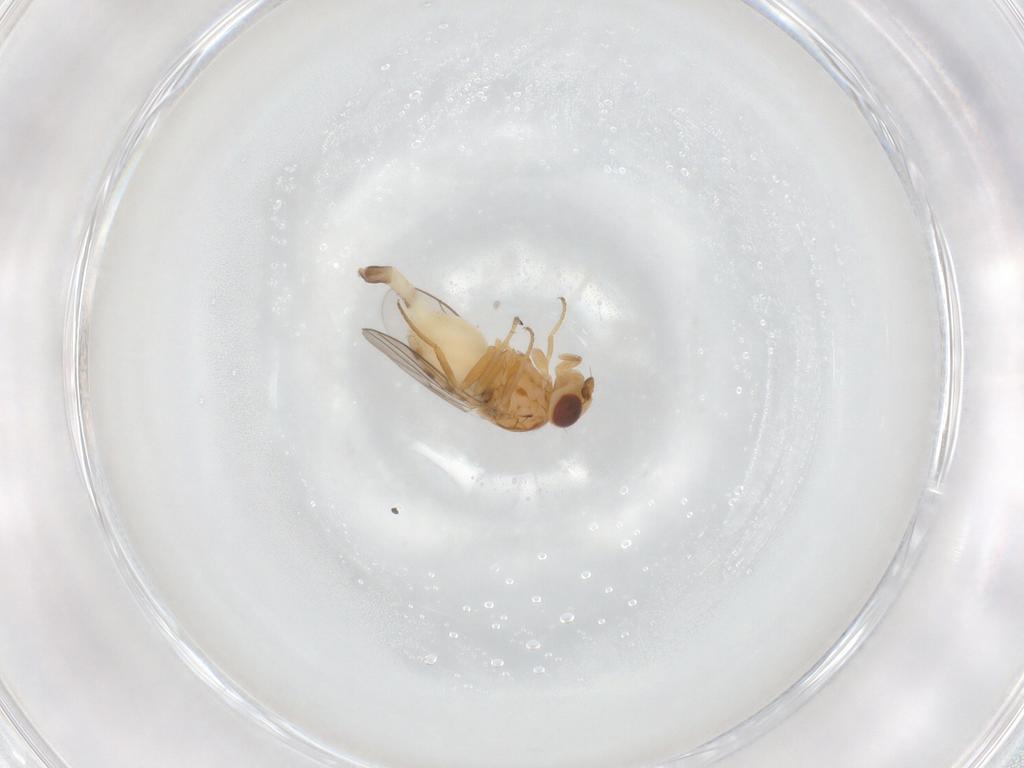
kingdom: Animalia
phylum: Arthropoda
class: Insecta
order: Diptera
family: Chloropidae
